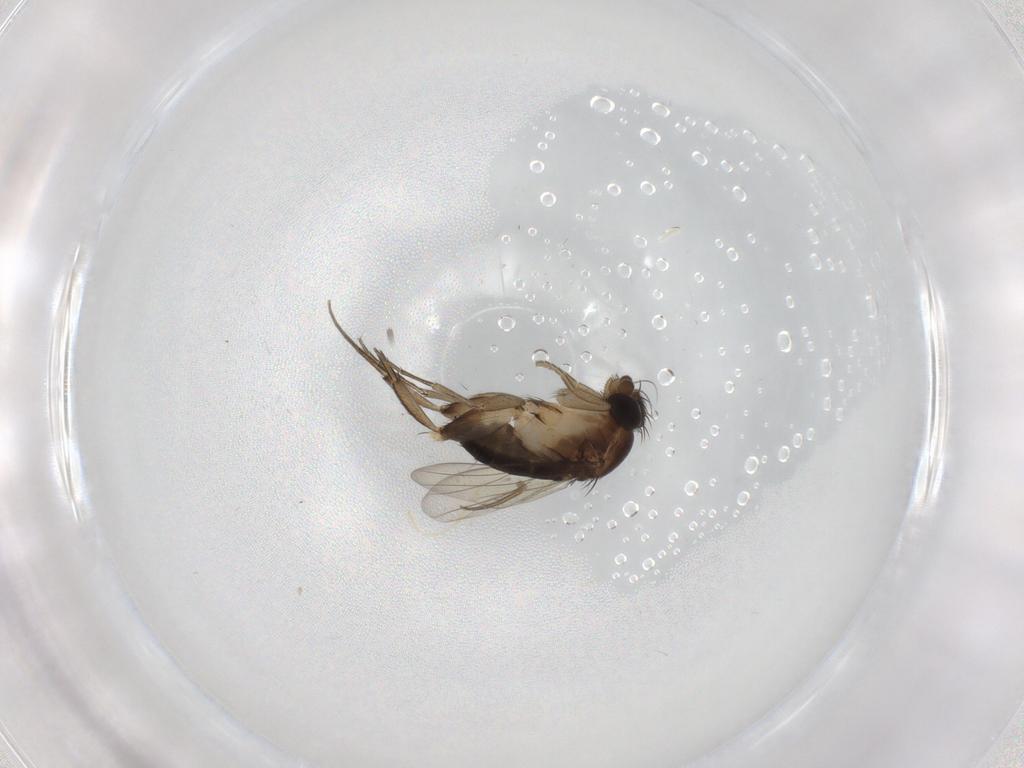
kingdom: Animalia
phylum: Arthropoda
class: Insecta
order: Diptera
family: Phoridae
